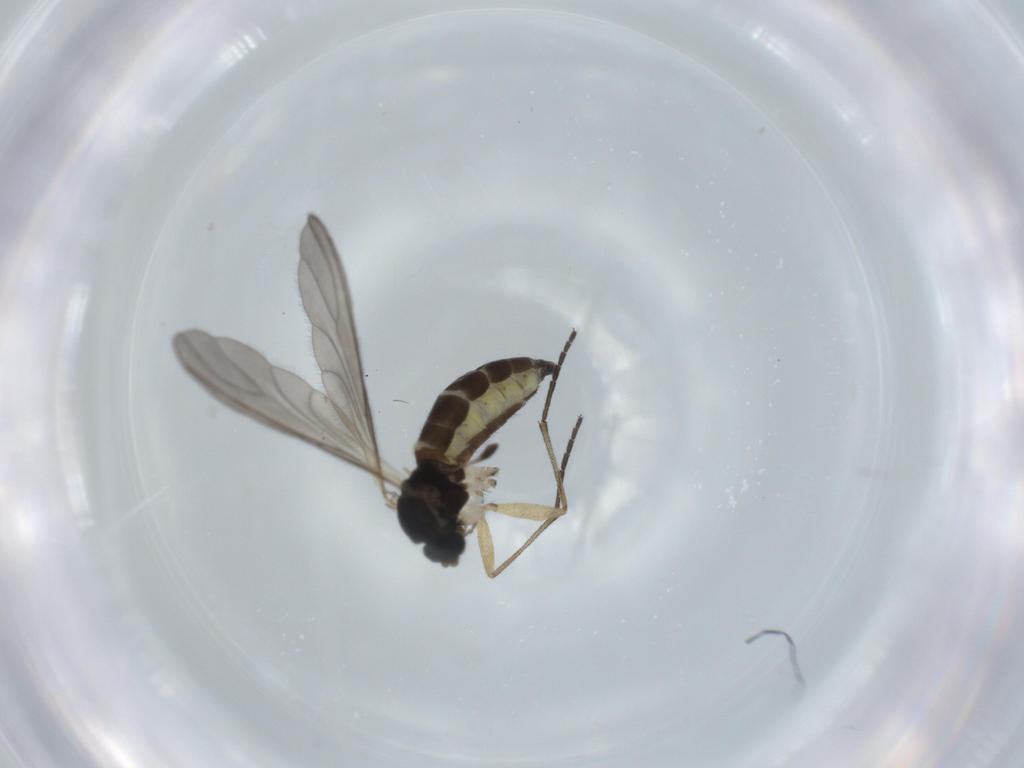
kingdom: Animalia
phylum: Arthropoda
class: Insecta
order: Diptera
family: Sciaridae
